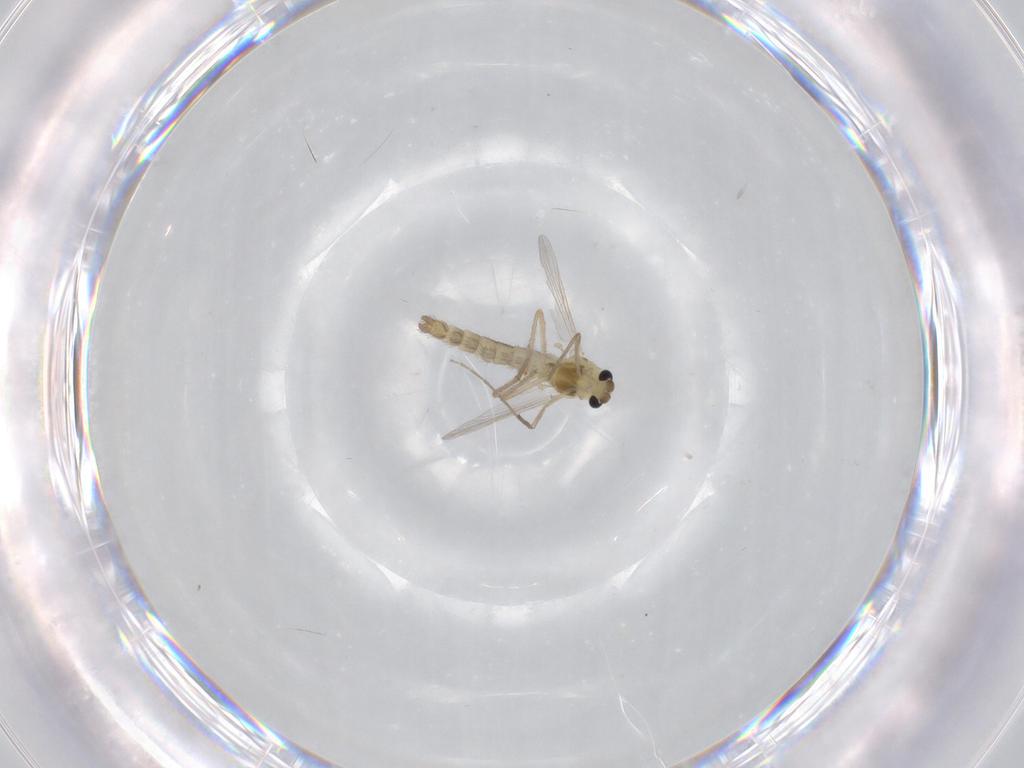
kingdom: Animalia
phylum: Arthropoda
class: Insecta
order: Diptera
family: Chironomidae
